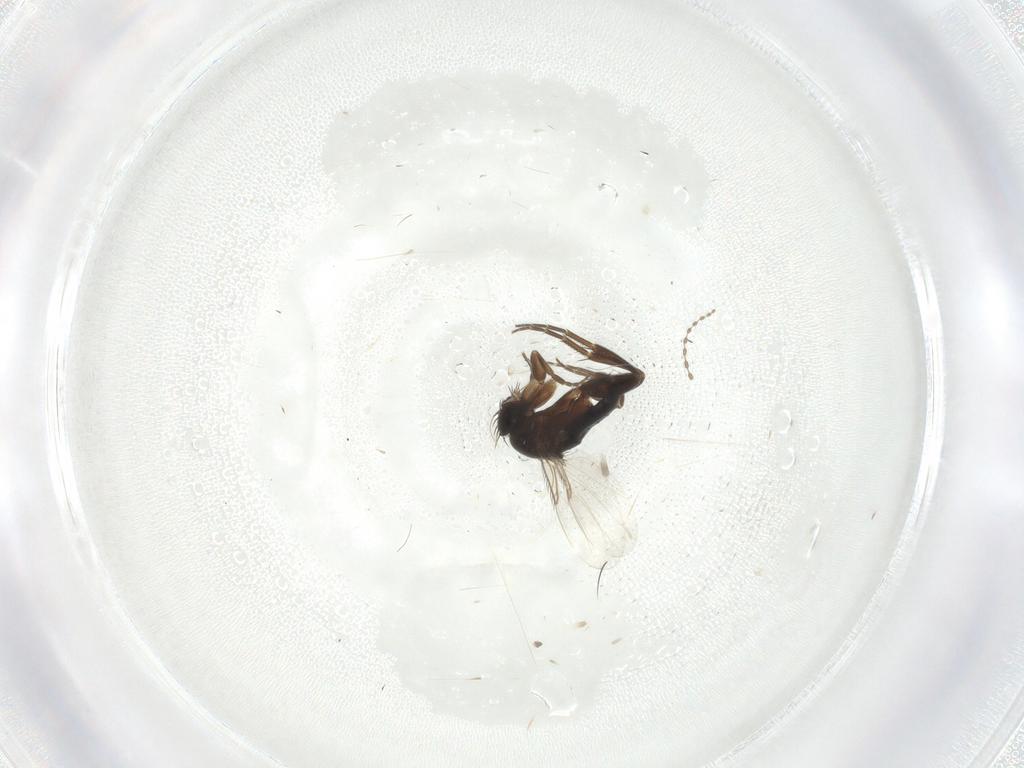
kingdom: Animalia
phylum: Arthropoda
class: Insecta
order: Diptera
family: Phoridae
